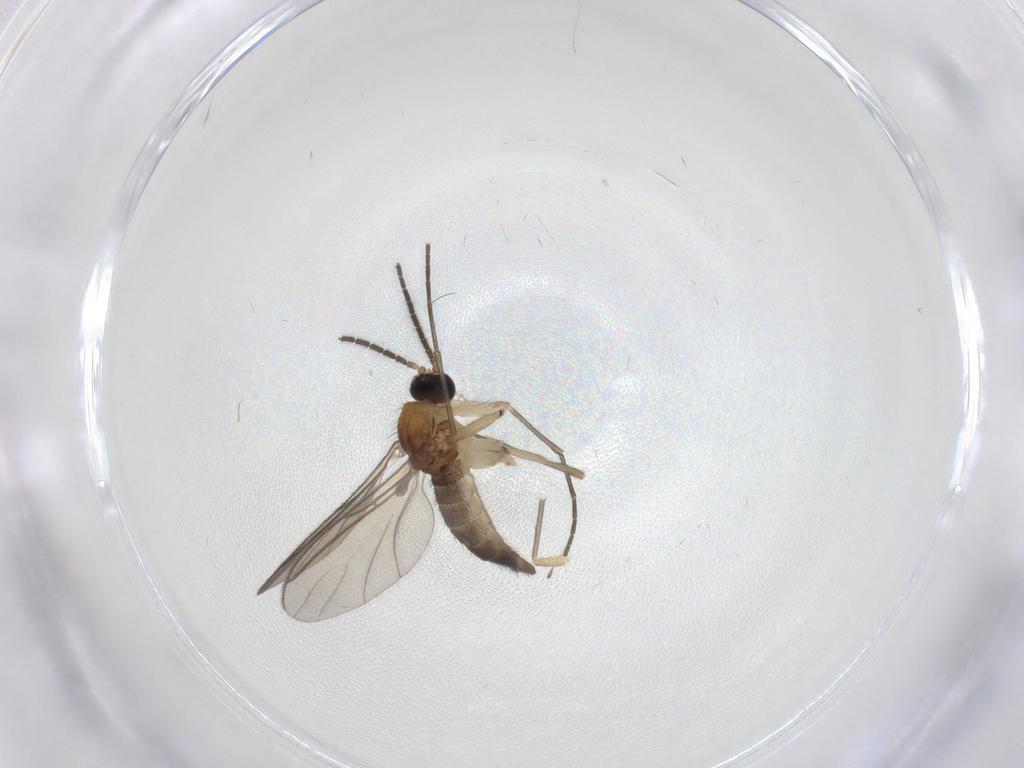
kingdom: Animalia
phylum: Arthropoda
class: Insecta
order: Diptera
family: Sciaridae
